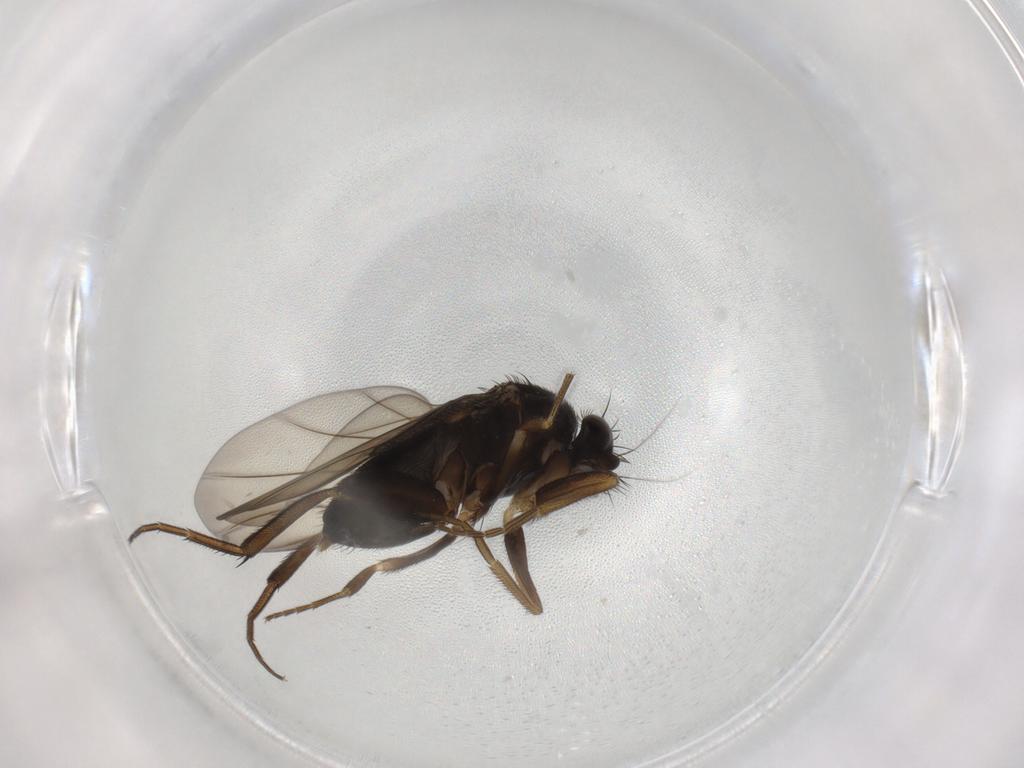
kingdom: Animalia
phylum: Arthropoda
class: Insecta
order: Diptera
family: Phoridae
